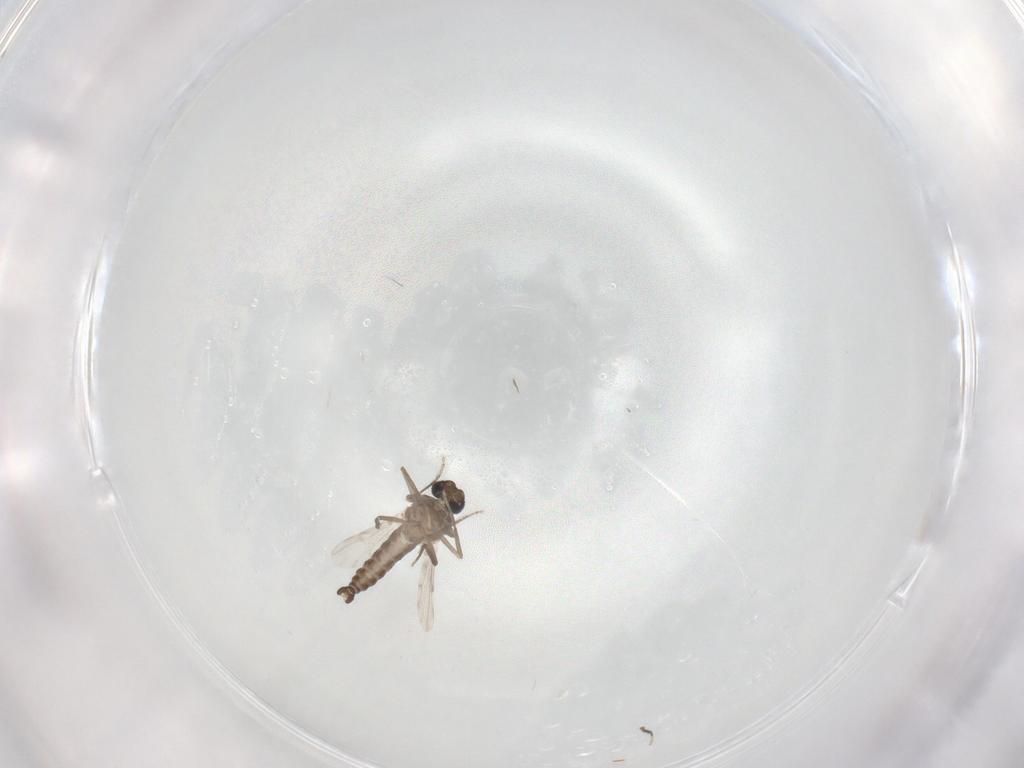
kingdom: Animalia
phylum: Arthropoda
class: Insecta
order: Diptera
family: Ceratopogonidae
